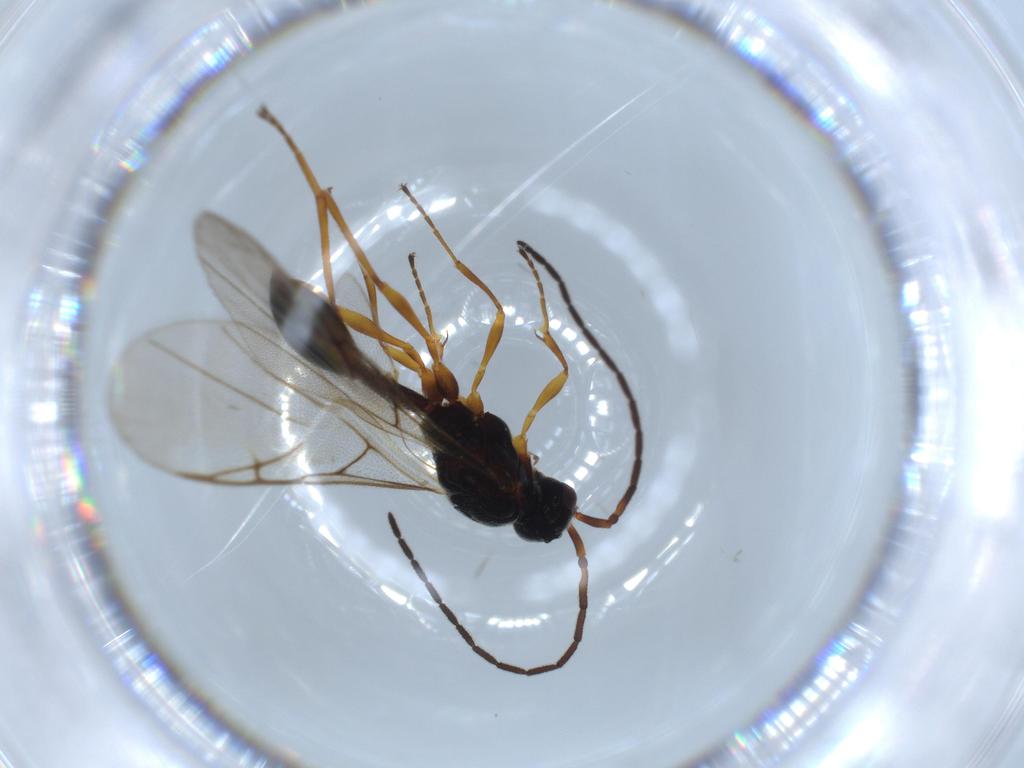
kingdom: Animalia
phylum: Arthropoda
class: Insecta
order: Hymenoptera
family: Diapriidae
